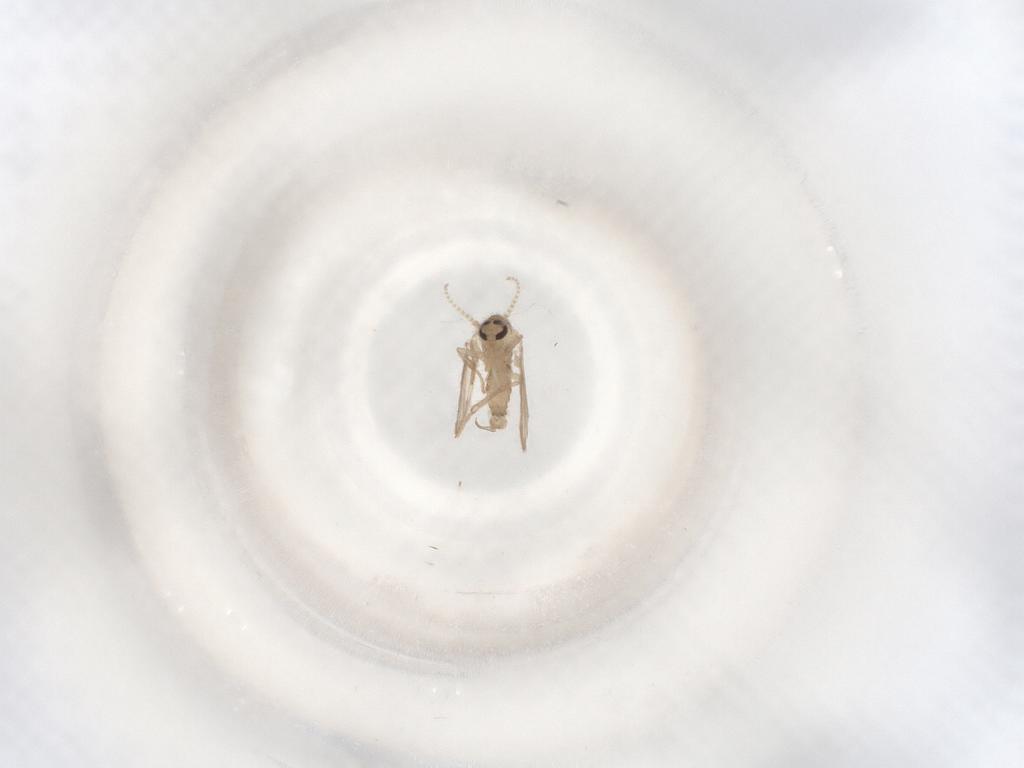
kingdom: Animalia
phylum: Arthropoda
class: Insecta
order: Diptera
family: Psychodidae
